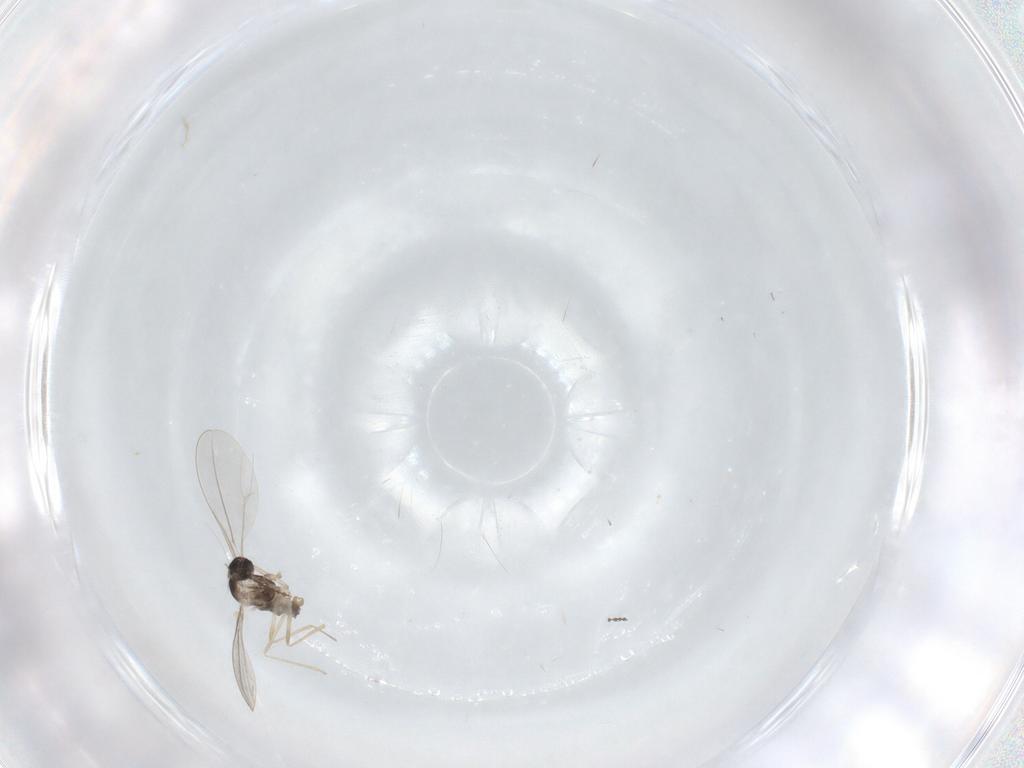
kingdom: Animalia
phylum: Arthropoda
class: Insecta
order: Diptera
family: Cecidomyiidae
